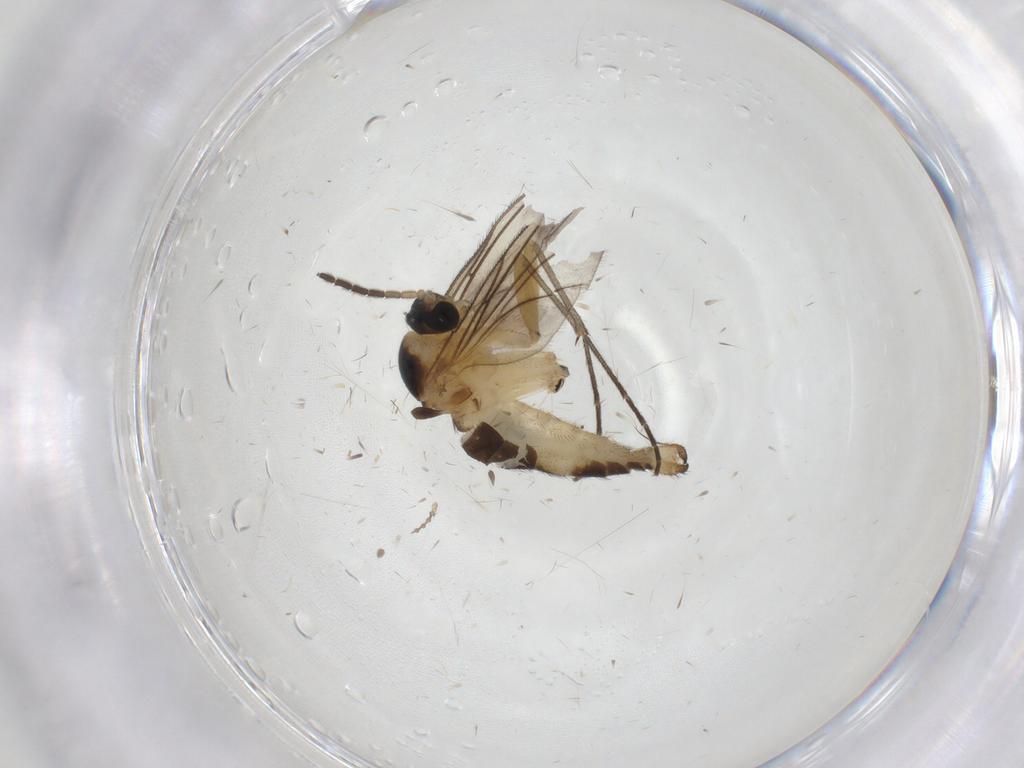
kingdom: Animalia
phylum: Arthropoda
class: Insecta
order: Diptera
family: Sciaridae
